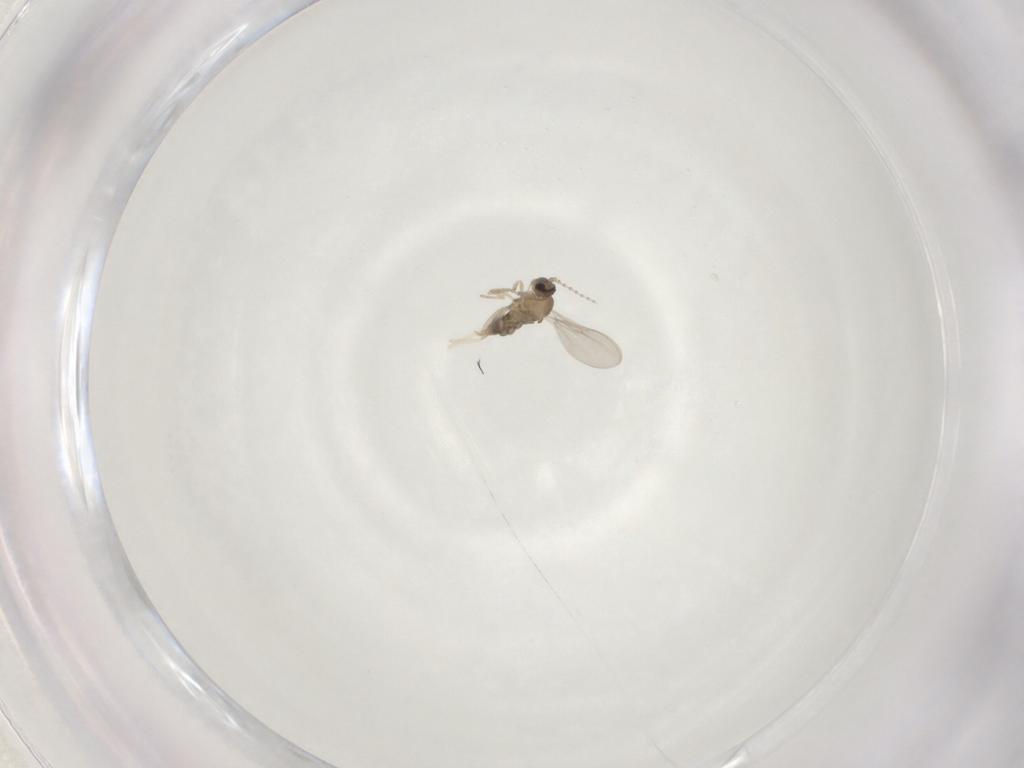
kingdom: Animalia
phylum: Arthropoda
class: Insecta
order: Diptera
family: Cecidomyiidae
